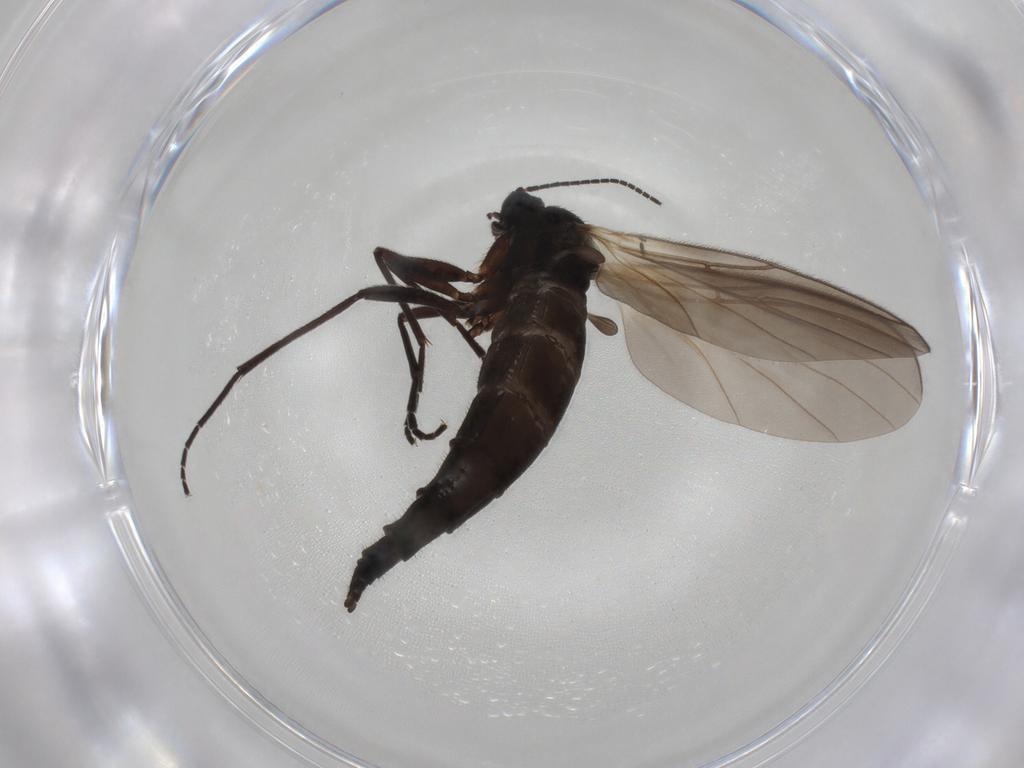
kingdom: Animalia
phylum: Arthropoda
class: Insecta
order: Diptera
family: Sciaridae
